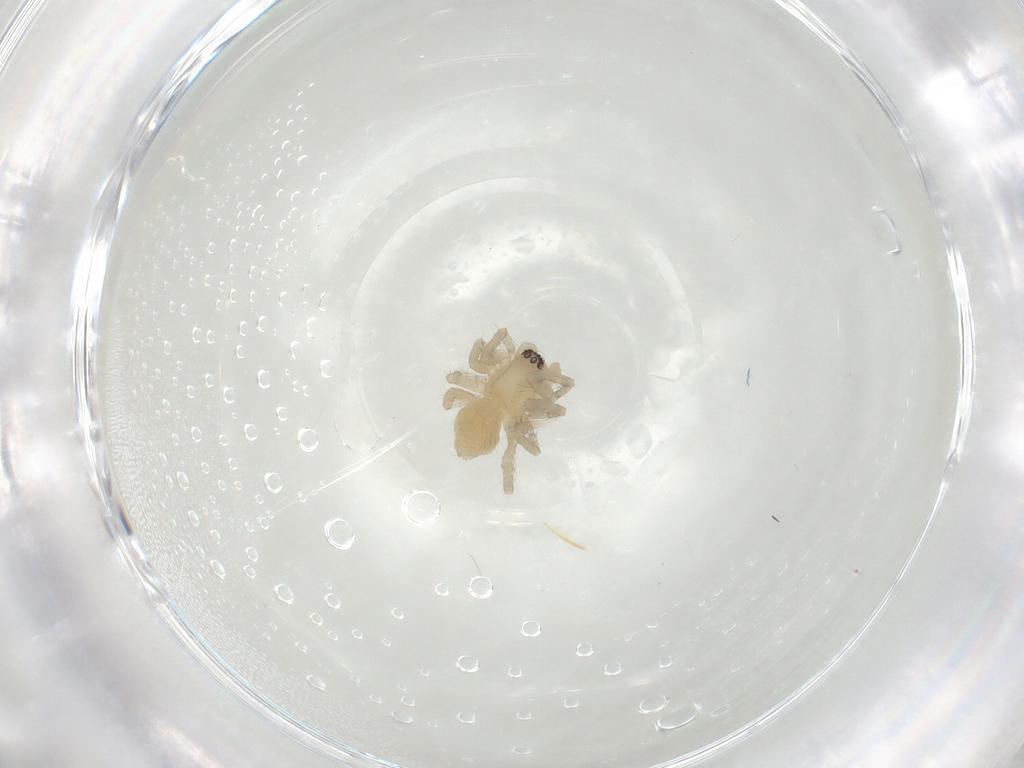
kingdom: Animalia
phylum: Arthropoda
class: Arachnida
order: Araneae
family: Amaurobiidae
